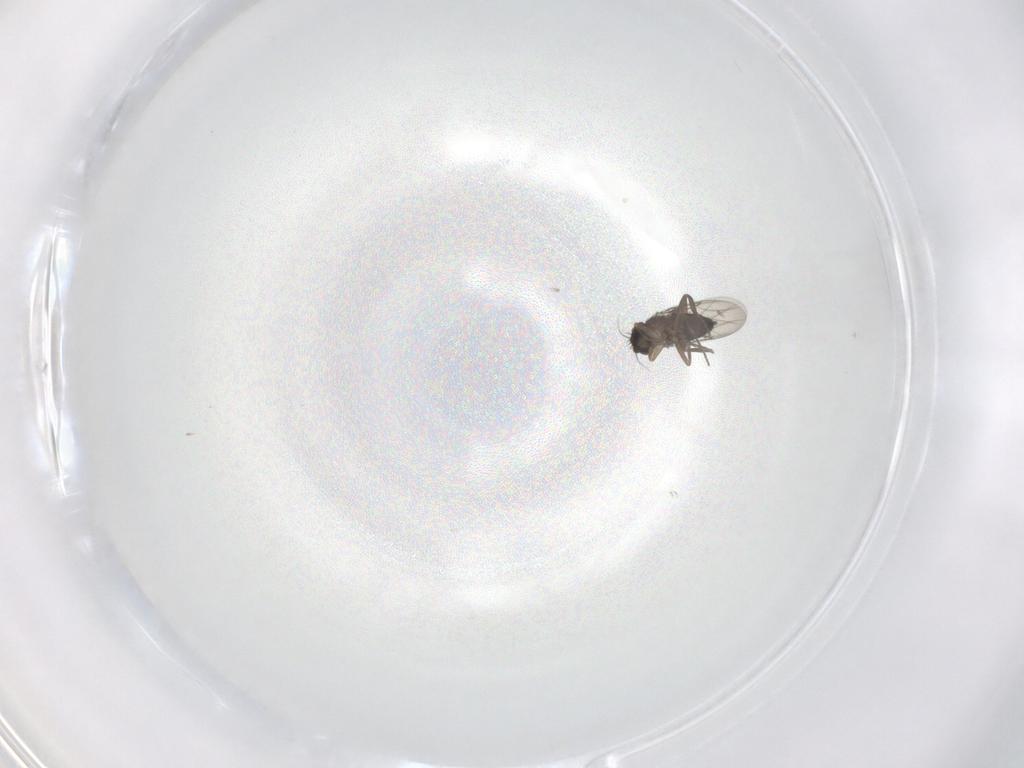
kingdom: Animalia
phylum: Arthropoda
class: Insecta
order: Diptera
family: Phoridae
